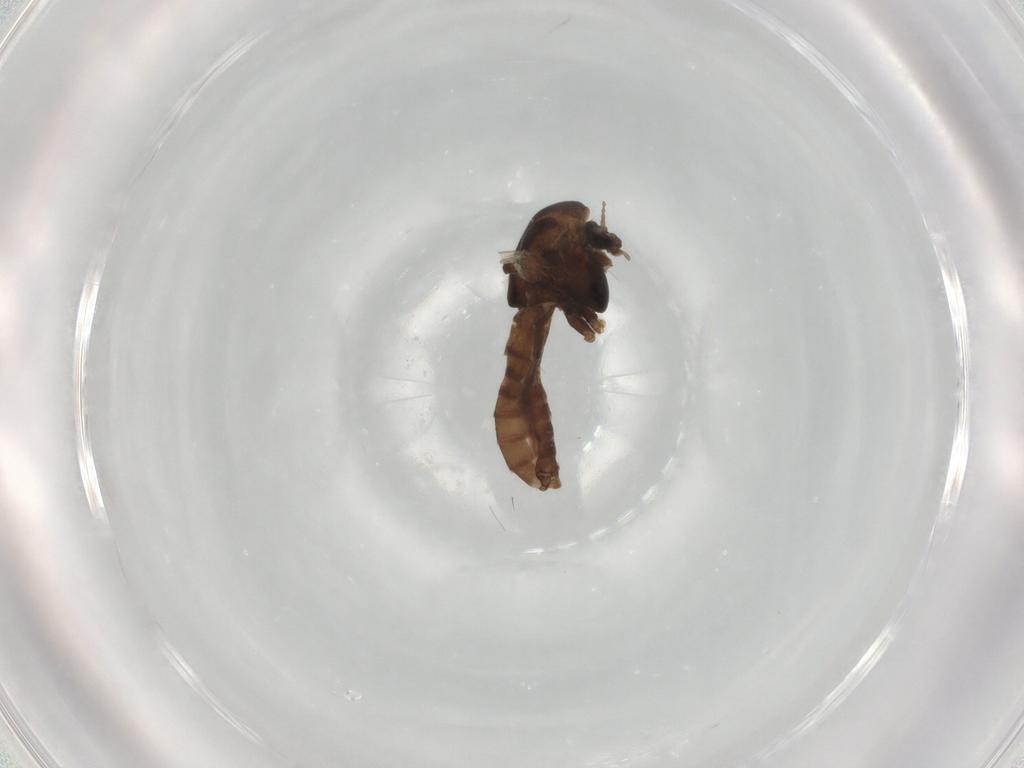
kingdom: Animalia
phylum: Arthropoda
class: Insecta
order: Diptera
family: Chironomidae
